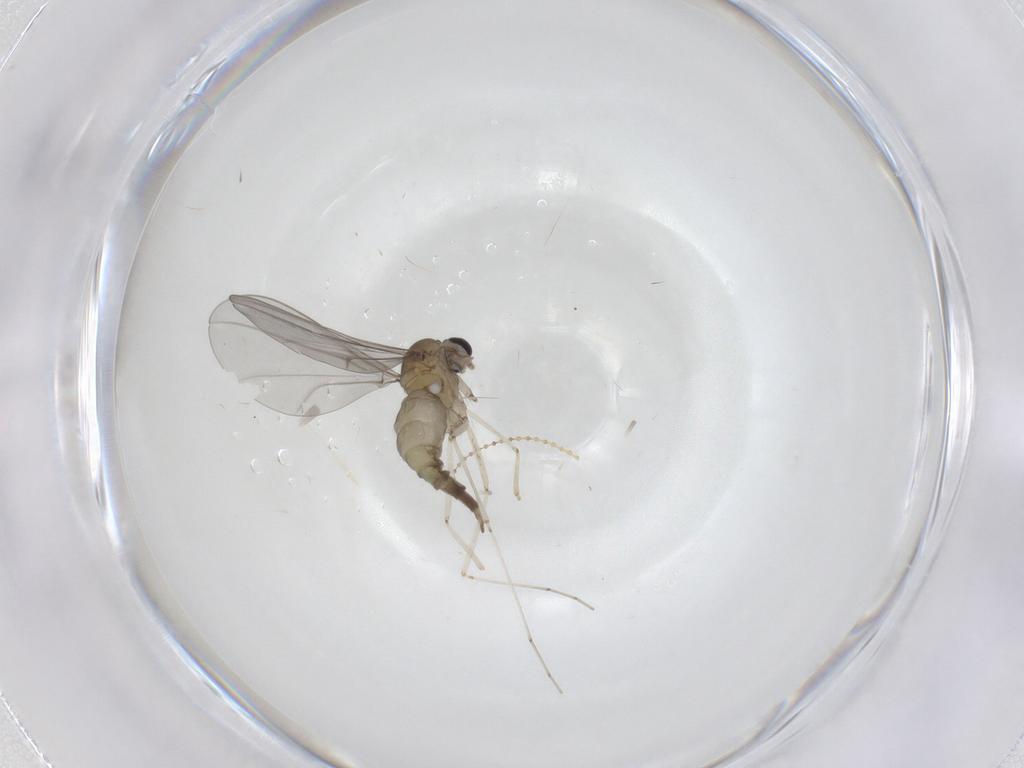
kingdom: Animalia
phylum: Arthropoda
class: Insecta
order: Diptera
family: Cecidomyiidae
